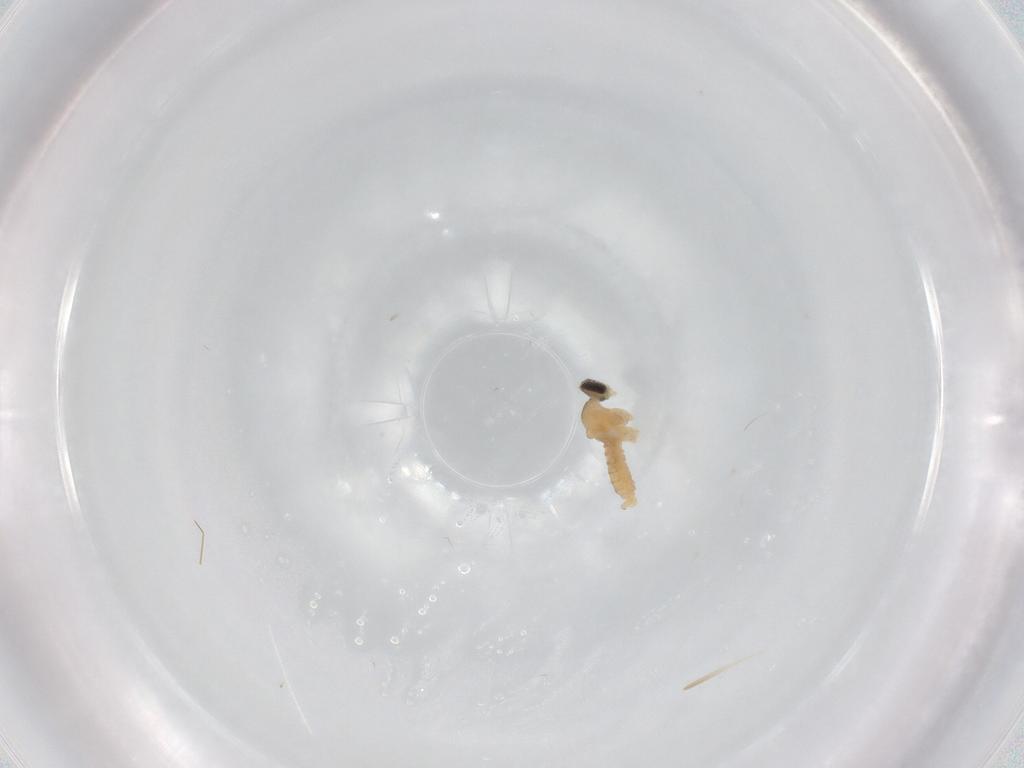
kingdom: Animalia
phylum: Arthropoda
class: Insecta
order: Diptera
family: Cecidomyiidae
